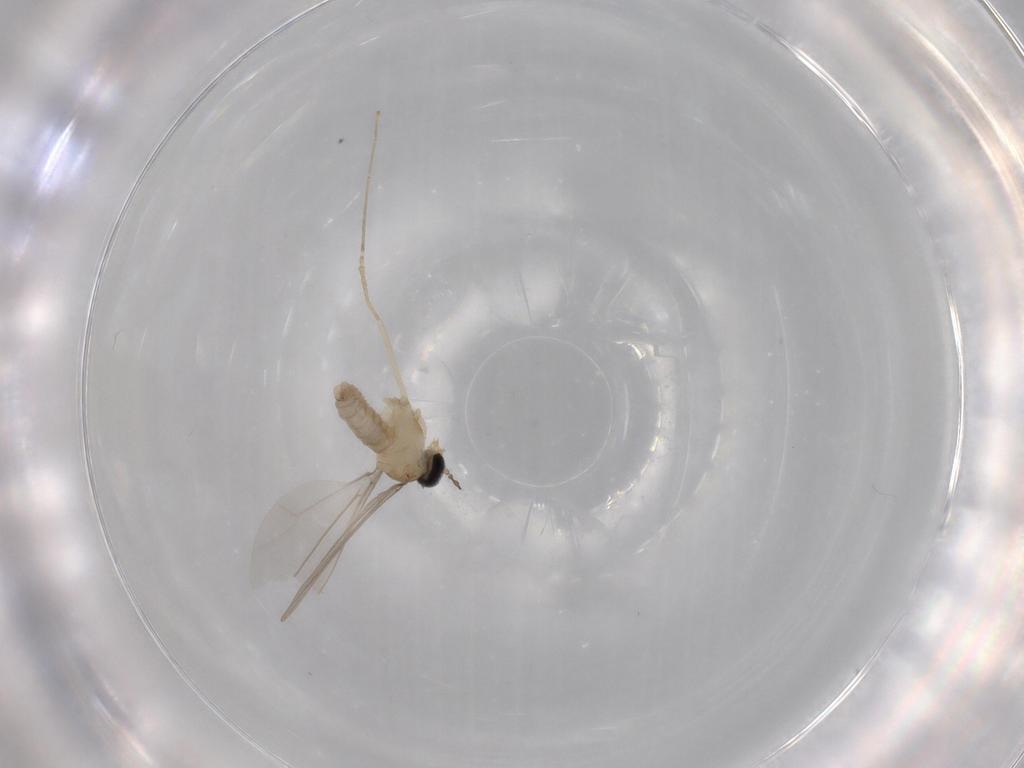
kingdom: Animalia
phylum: Arthropoda
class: Insecta
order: Diptera
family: Cecidomyiidae
